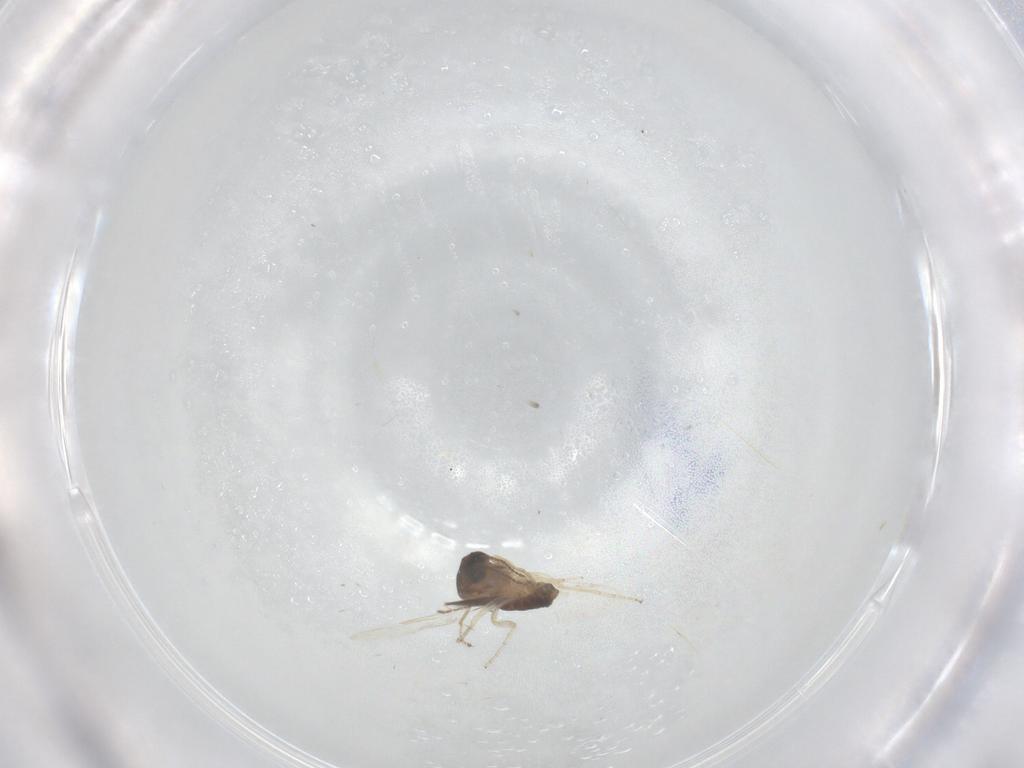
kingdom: Animalia
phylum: Arthropoda
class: Insecta
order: Diptera
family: Ceratopogonidae
